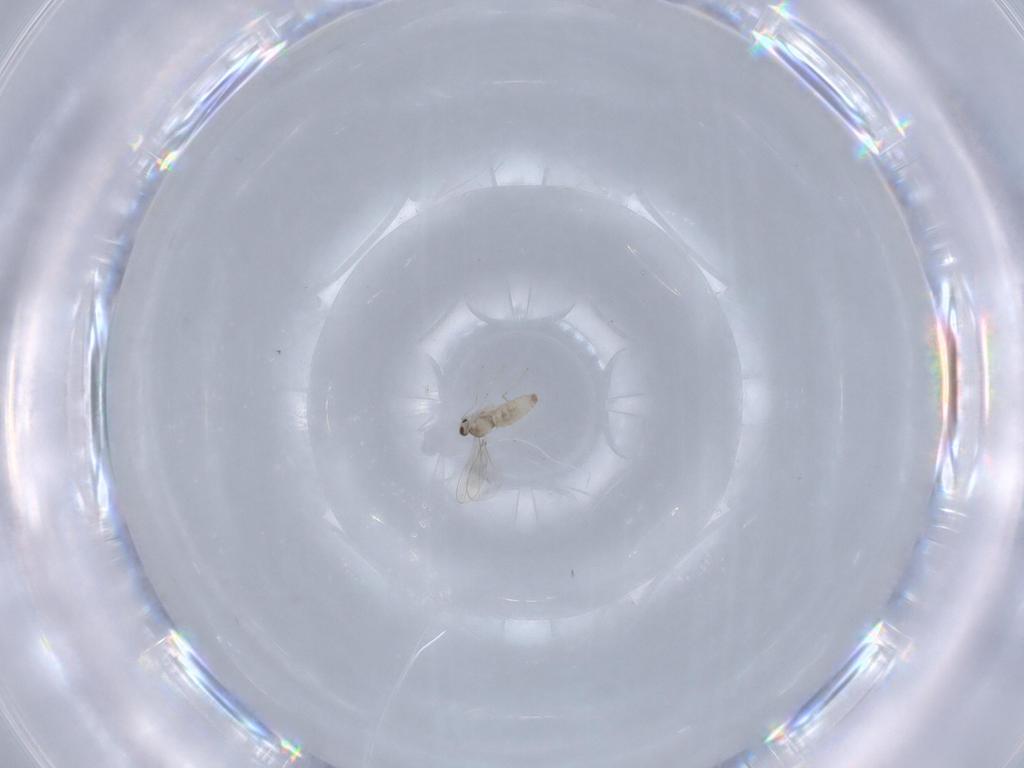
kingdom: Animalia
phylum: Arthropoda
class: Insecta
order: Diptera
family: Cecidomyiidae
